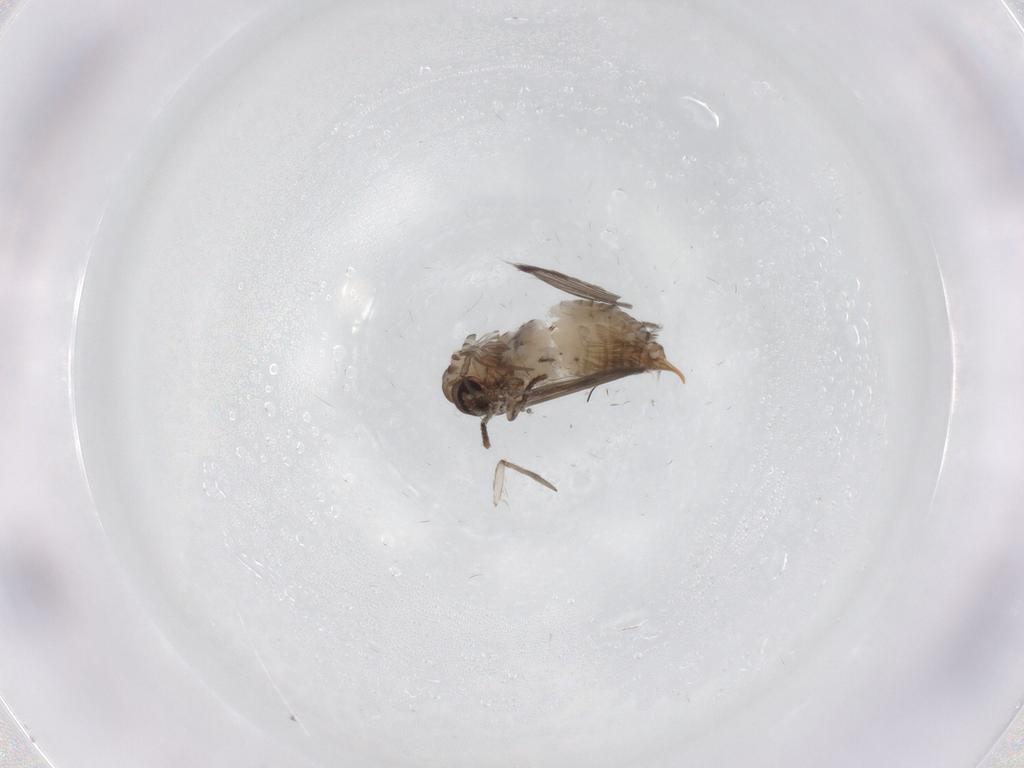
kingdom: Animalia
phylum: Arthropoda
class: Insecta
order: Diptera
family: Psychodidae
